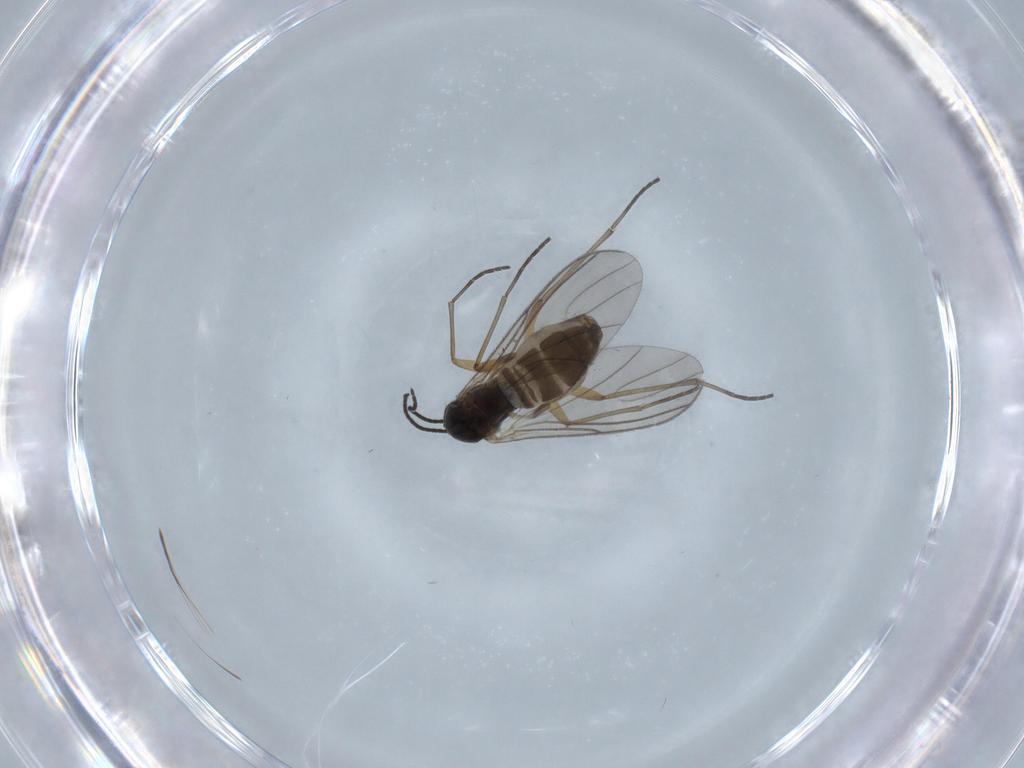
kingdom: Animalia
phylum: Arthropoda
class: Insecta
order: Diptera
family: Sciaridae
